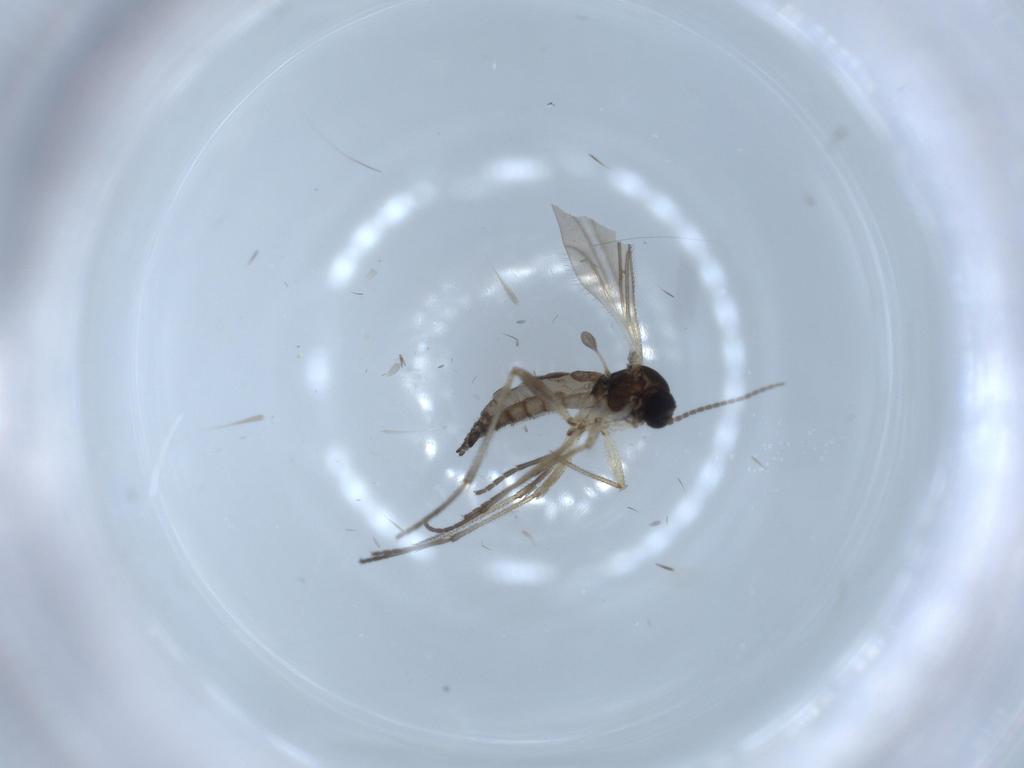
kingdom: Animalia
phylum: Arthropoda
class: Insecta
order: Diptera
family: Sciaridae
